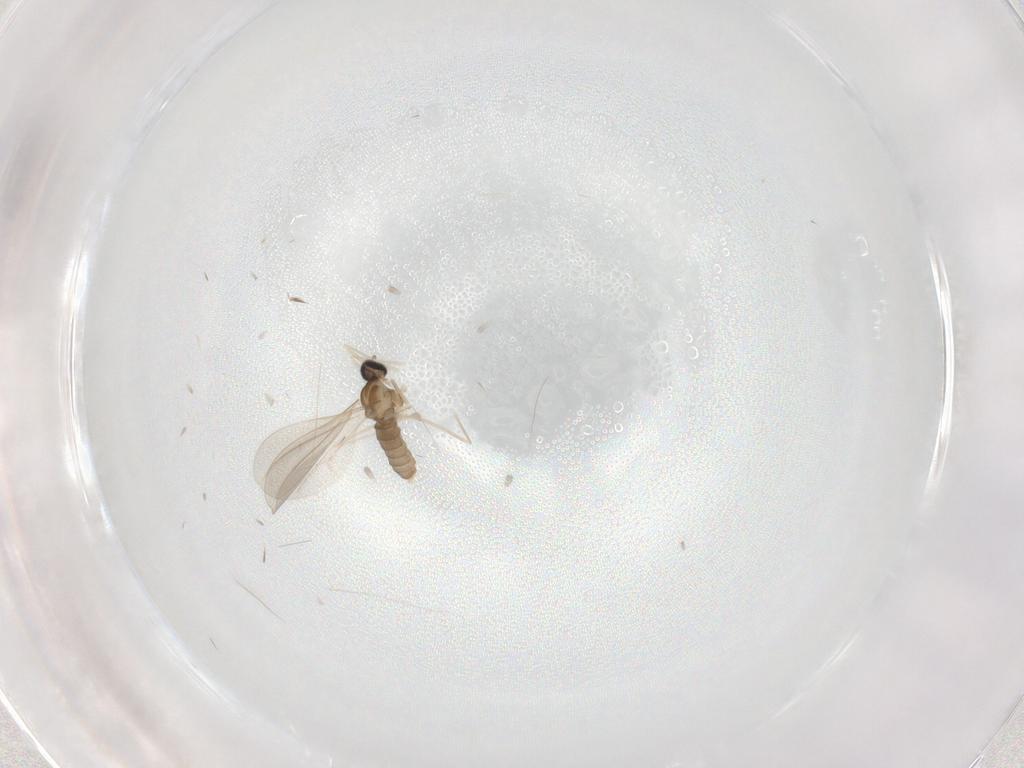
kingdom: Animalia
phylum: Arthropoda
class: Insecta
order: Diptera
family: Cecidomyiidae
